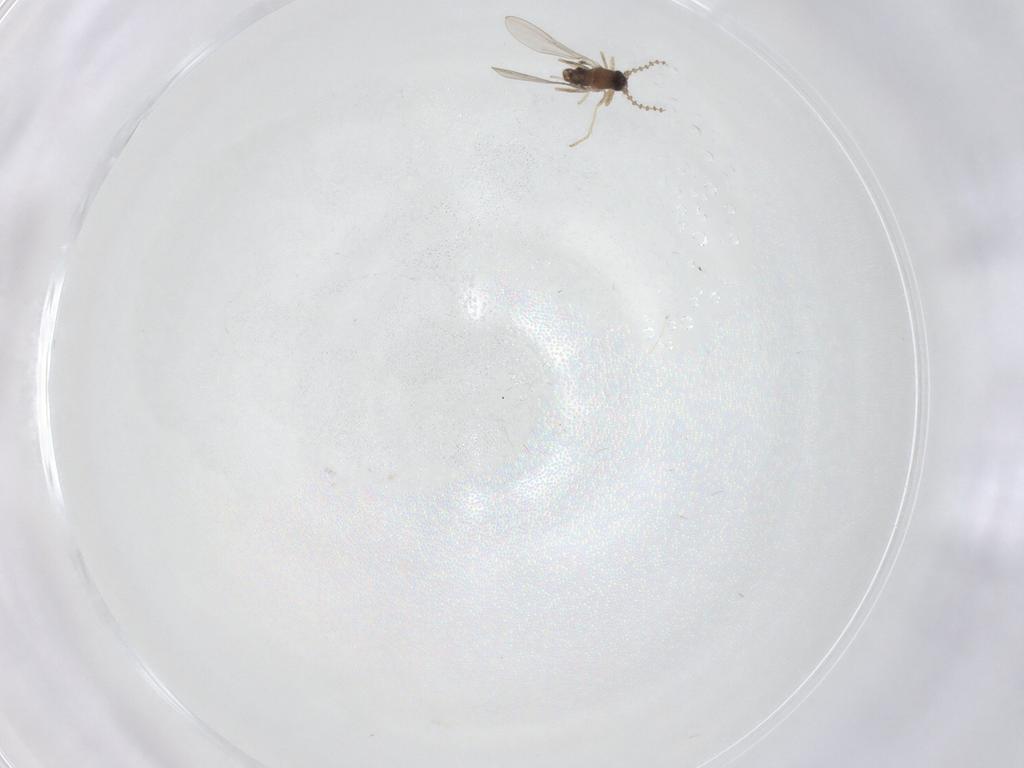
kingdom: Animalia
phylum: Arthropoda
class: Insecta
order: Diptera
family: Cecidomyiidae
